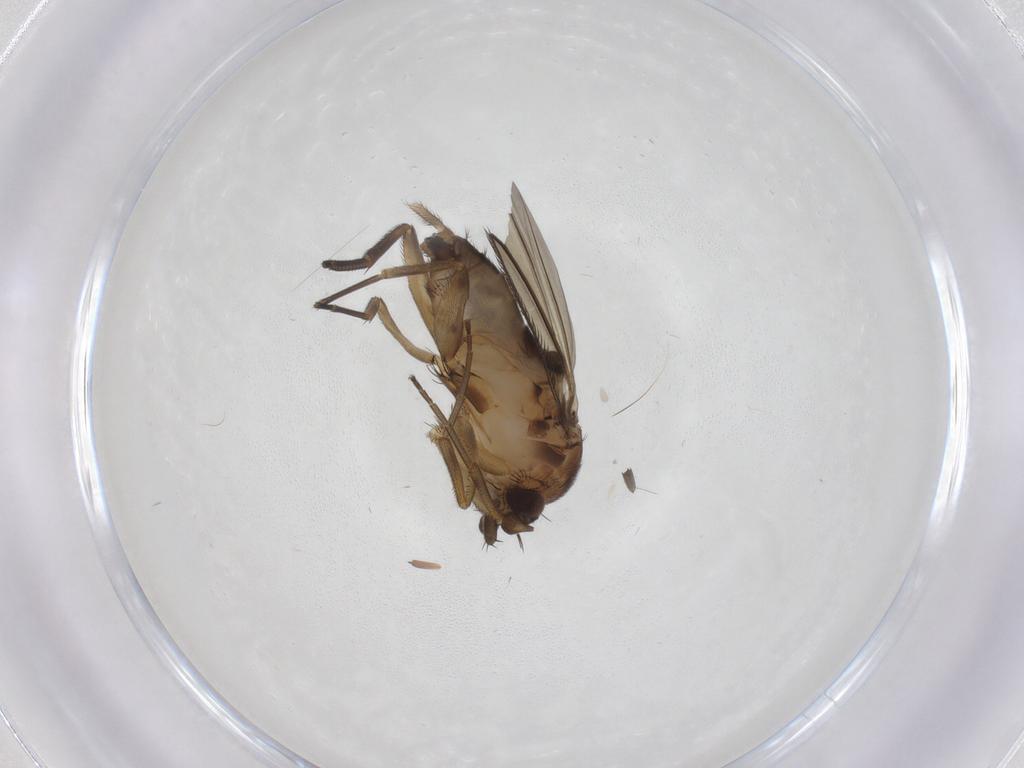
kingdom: Animalia
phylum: Arthropoda
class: Insecta
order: Diptera
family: Phoridae
